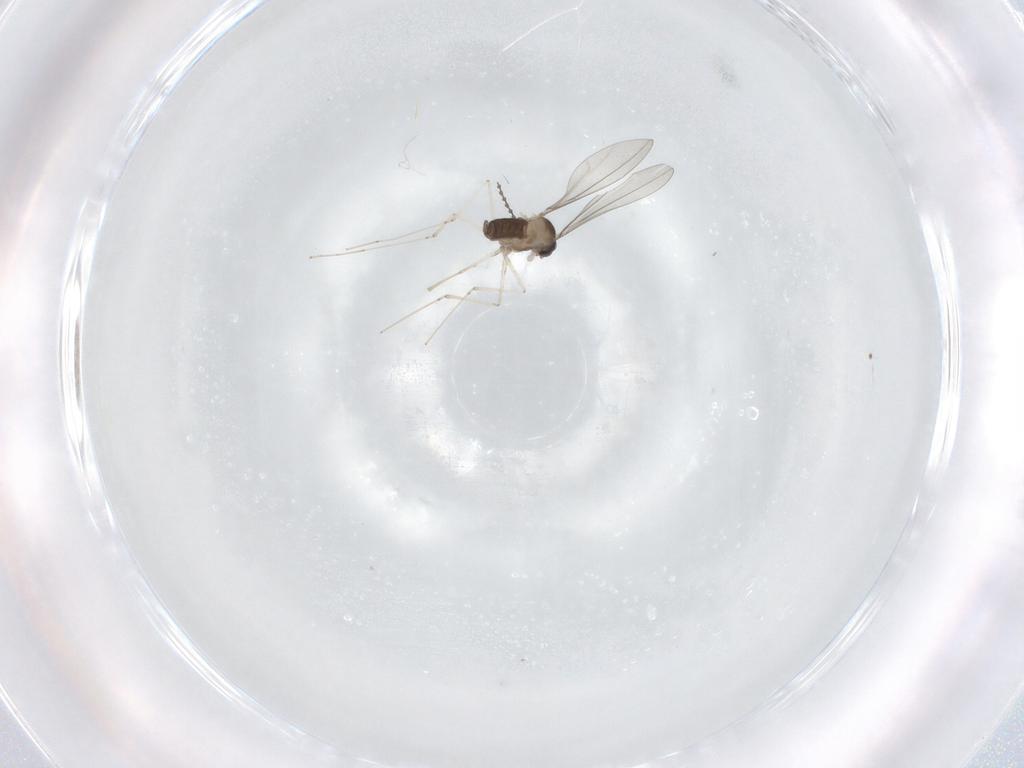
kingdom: Animalia
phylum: Arthropoda
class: Insecta
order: Diptera
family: Cecidomyiidae
